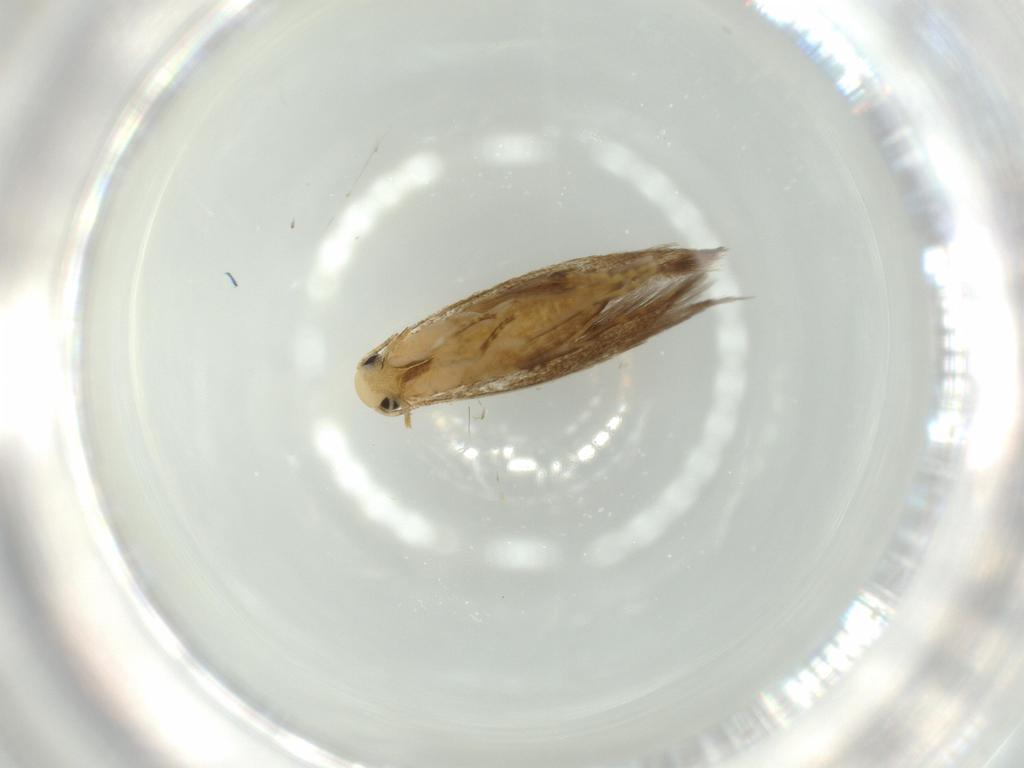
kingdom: Animalia
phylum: Arthropoda
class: Insecta
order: Lepidoptera
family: Tineidae
